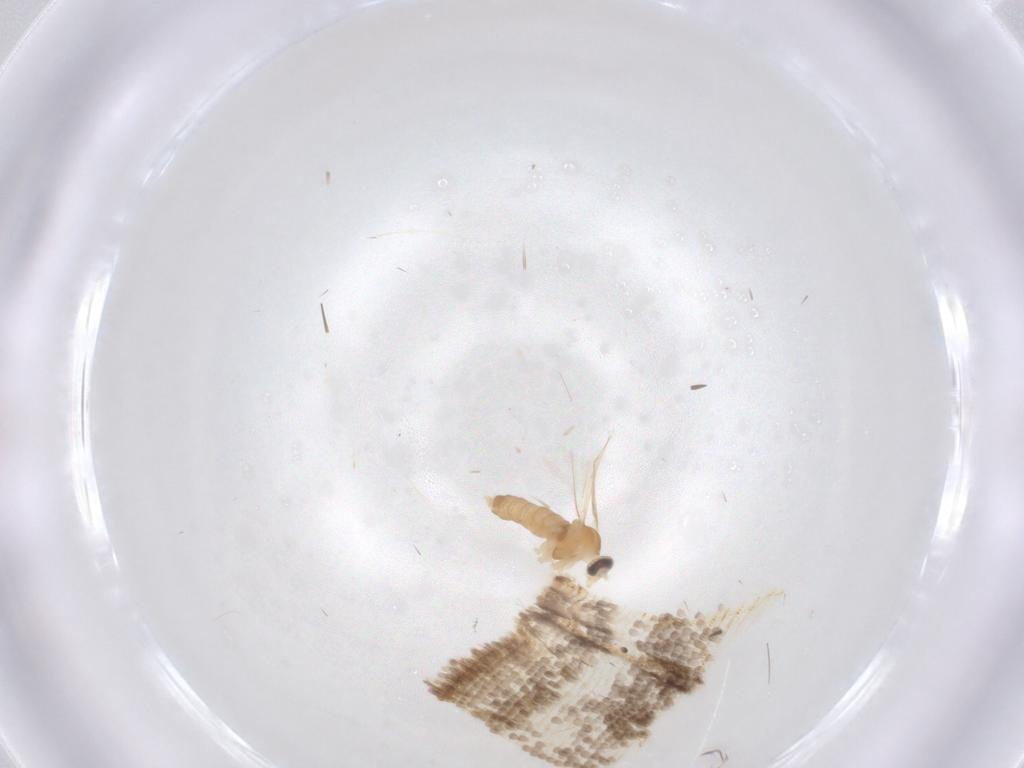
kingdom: Animalia
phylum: Arthropoda
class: Insecta
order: Diptera
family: Cecidomyiidae
